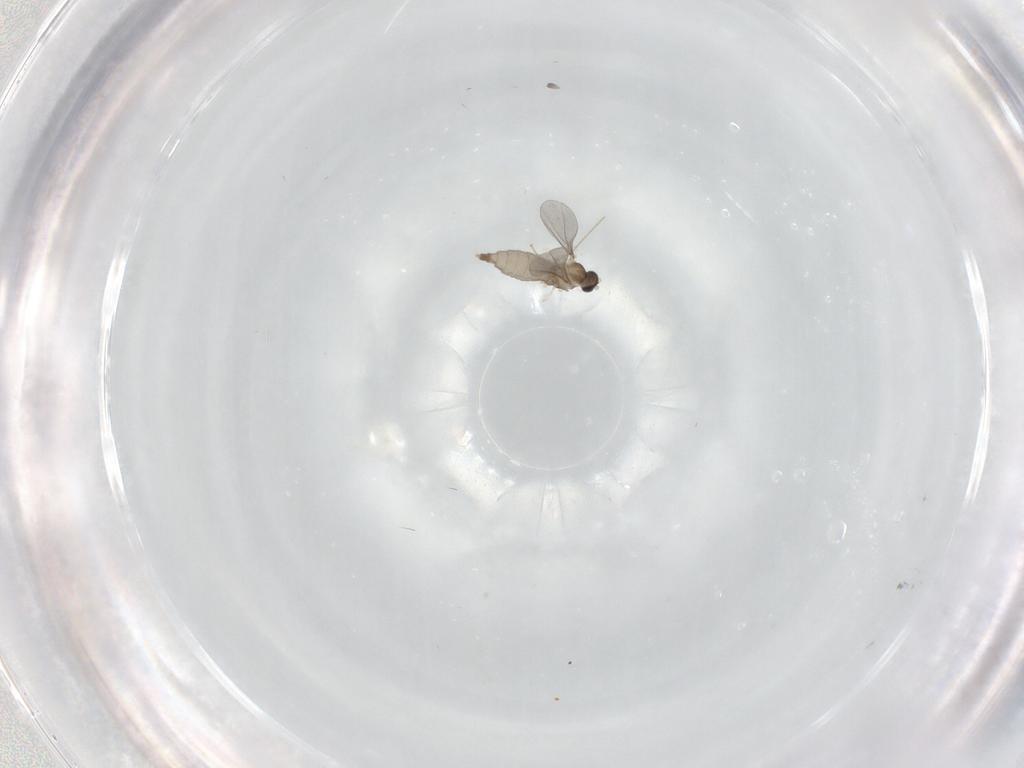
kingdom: Animalia
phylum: Arthropoda
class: Insecta
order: Diptera
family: Cecidomyiidae
